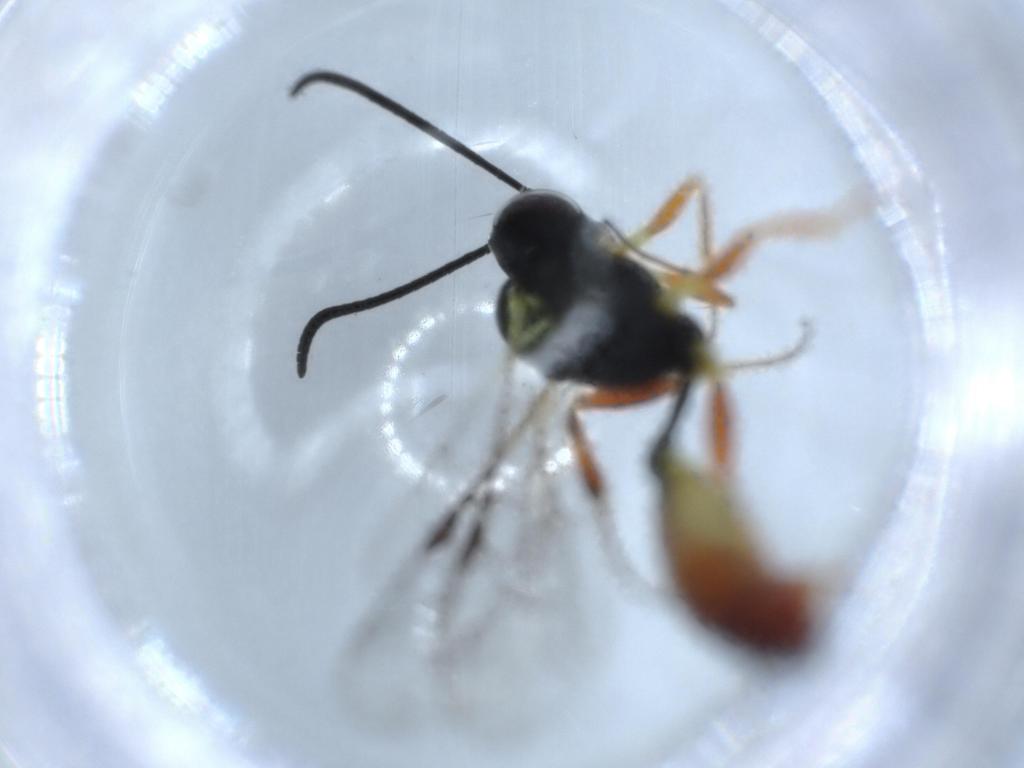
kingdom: Animalia
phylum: Arthropoda
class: Insecta
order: Hymenoptera
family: Ichneumonidae
